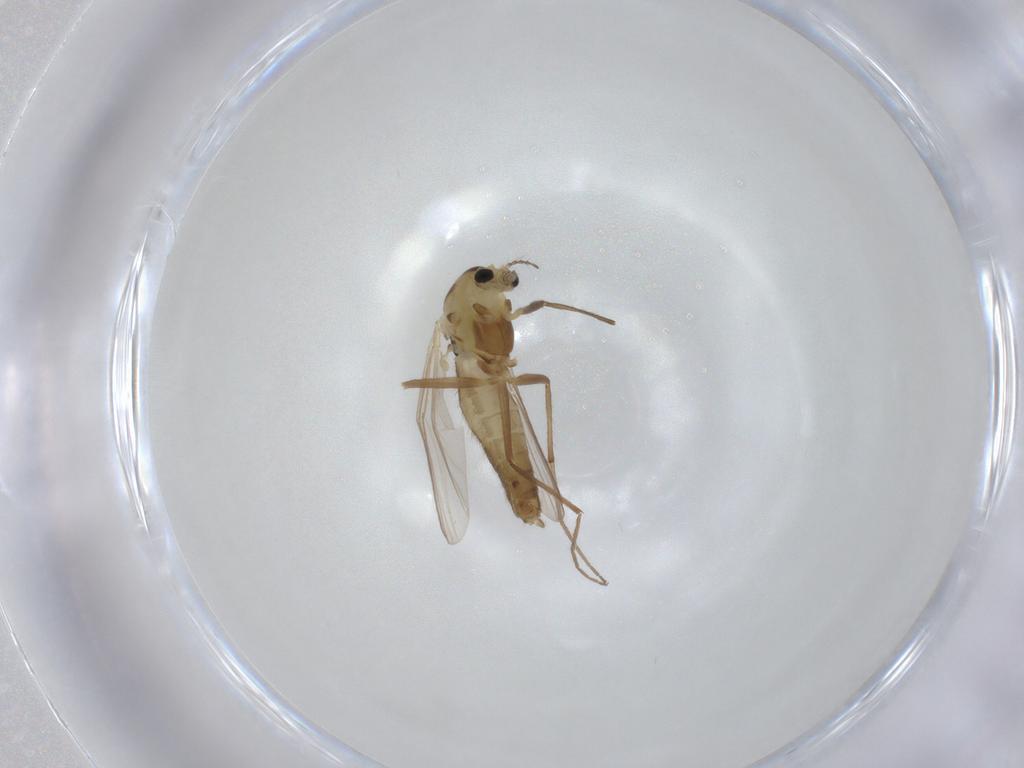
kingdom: Animalia
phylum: Arthropoda
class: Insecta
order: Diptera
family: Chironomidae
